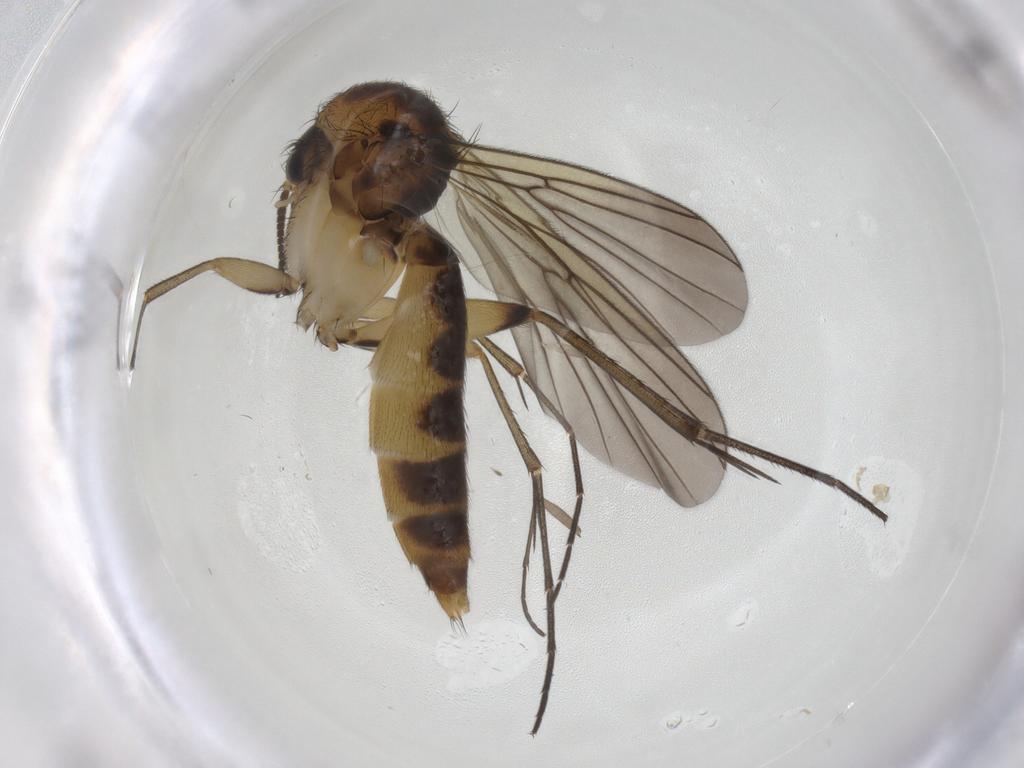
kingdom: Animalia
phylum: Arthropoda
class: Insecta
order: Diptera
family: Mycetophilidae
